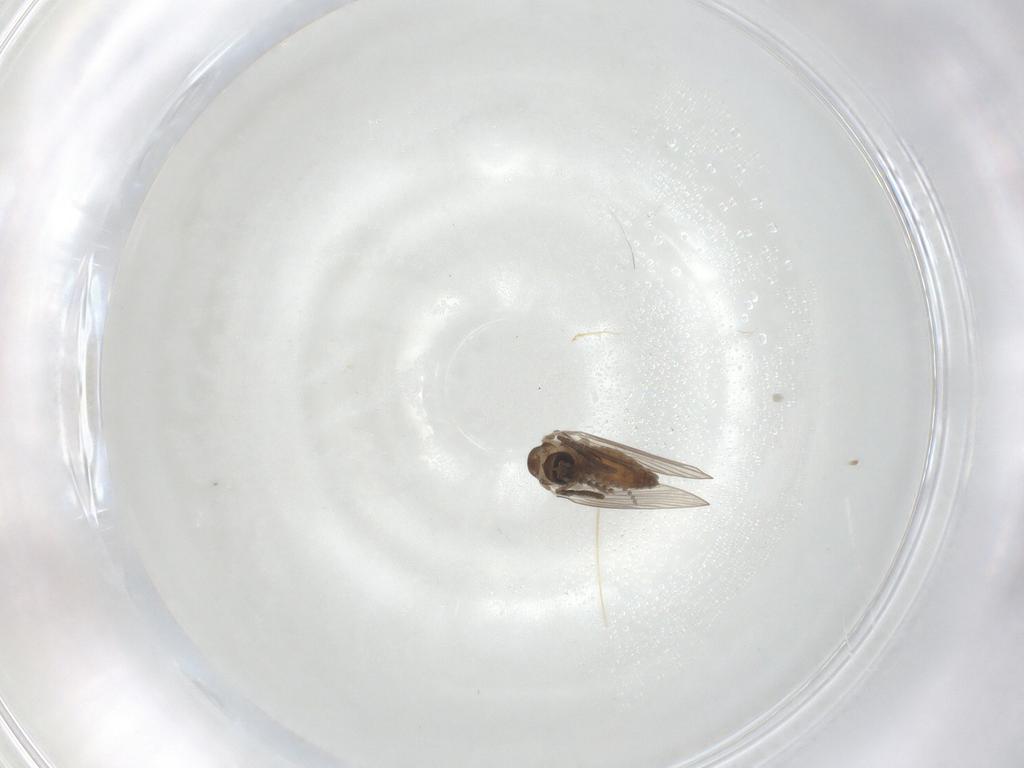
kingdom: Animalia
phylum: Arthropoda
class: Insecta
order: Diptera
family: Psychodidae
